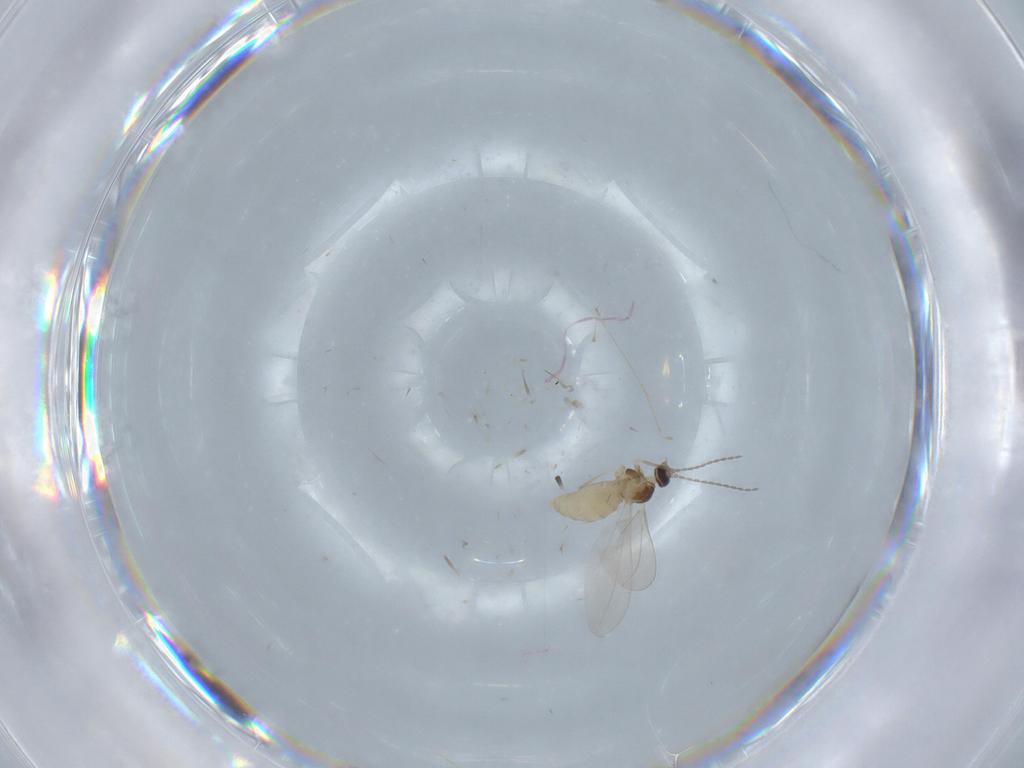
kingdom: Animalia
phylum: Arthropoda
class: Insecta
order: Diptera
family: Cecidomyiidae
